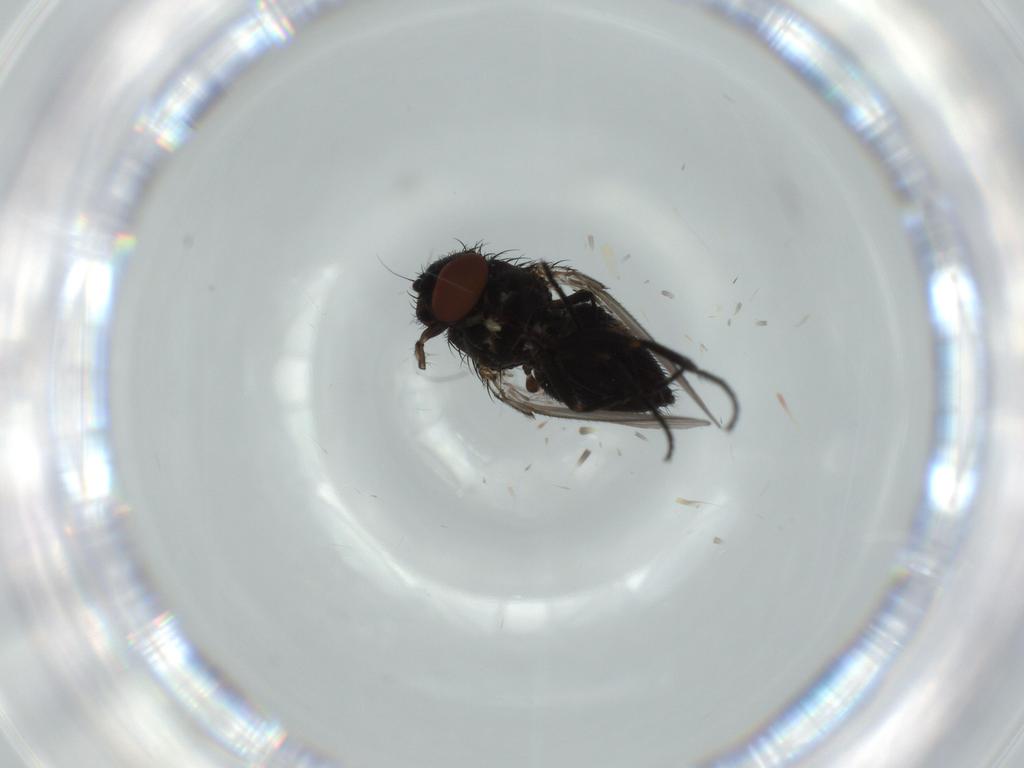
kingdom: Animalia
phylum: Arthropoda
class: Insecta
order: Diptera
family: Milichiidae
